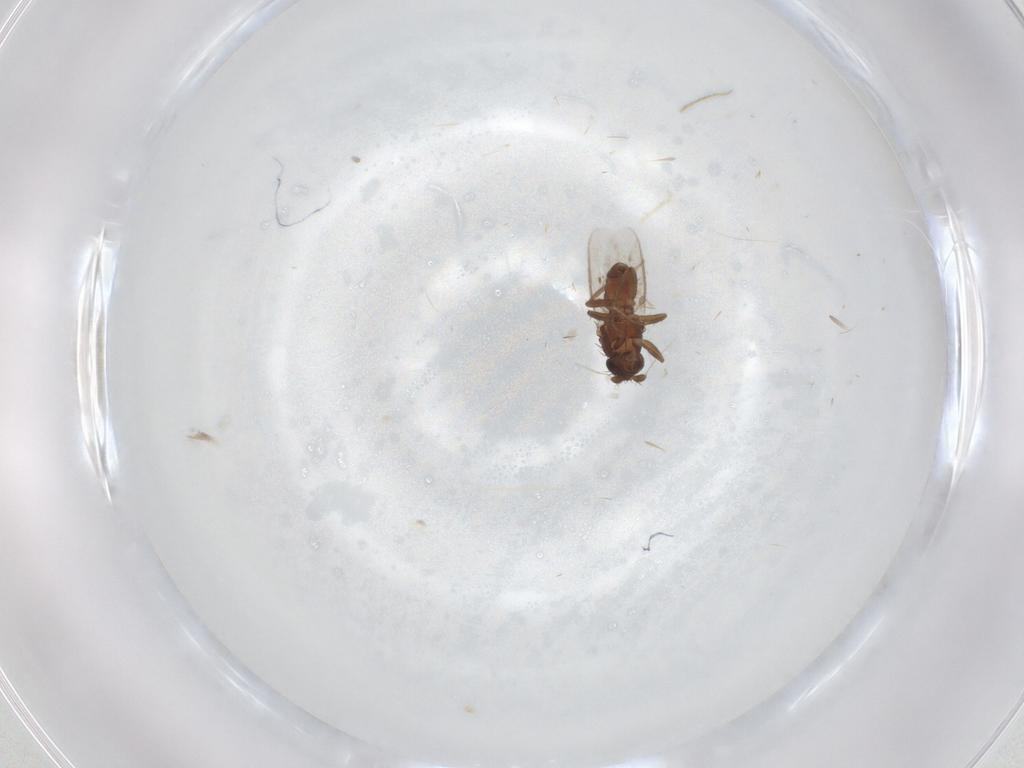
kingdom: Animalia
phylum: Arthropoda
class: Insecta
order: Diptera
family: Sphaeroceridae
